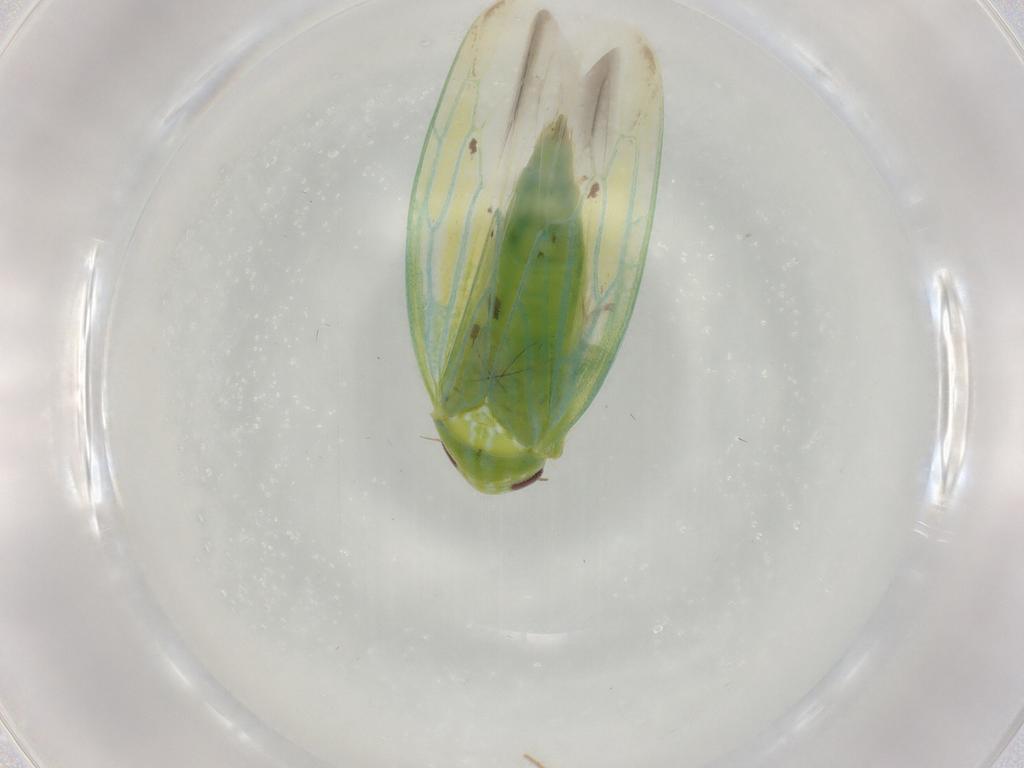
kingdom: Animalia
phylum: Arthropoda
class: Insecta
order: Hemiptera
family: Cicadellidae
